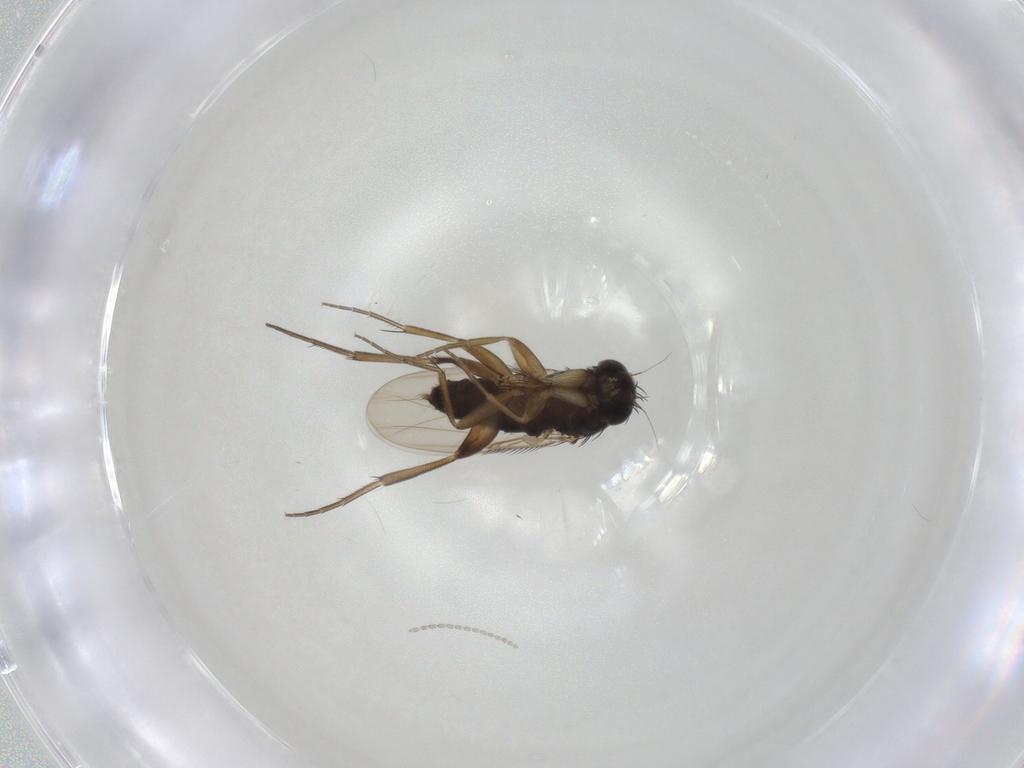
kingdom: Animalia
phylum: Arthropoda
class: Insecta
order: Diptera
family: Cecidomyiidae
